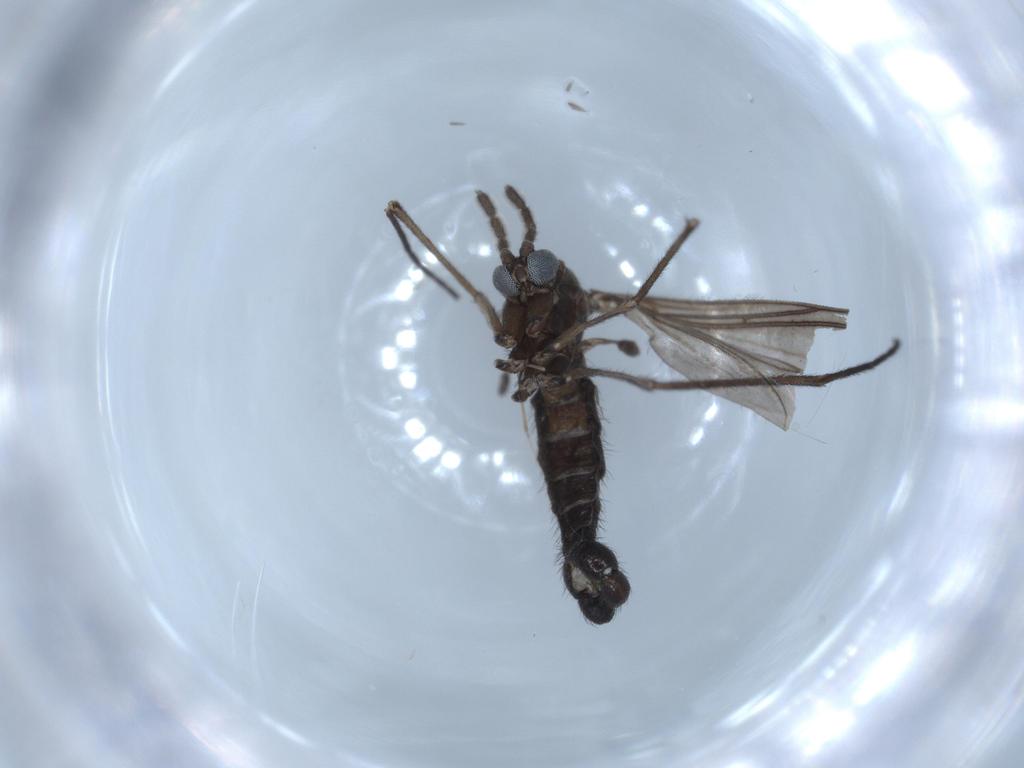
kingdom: Animalia
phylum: Arthropoda
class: Insecta
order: Diptera
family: Sciaridae
